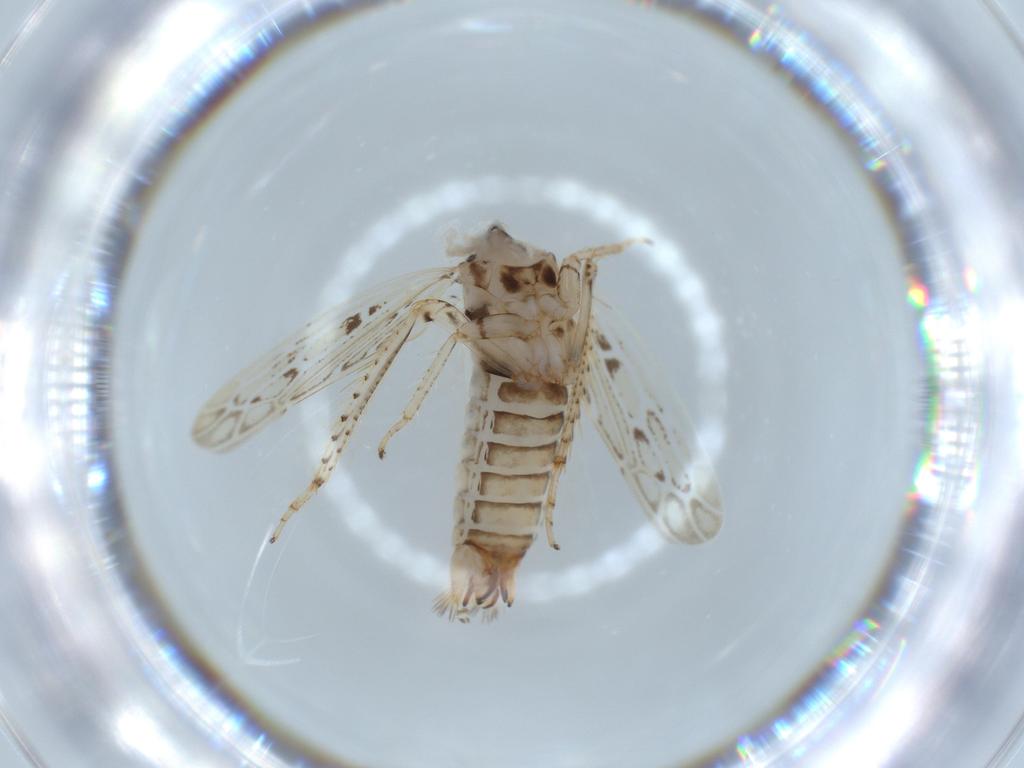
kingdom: Animalia
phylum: Arthropoda
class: Insecta
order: Hemiptera
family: Cicadellidae
